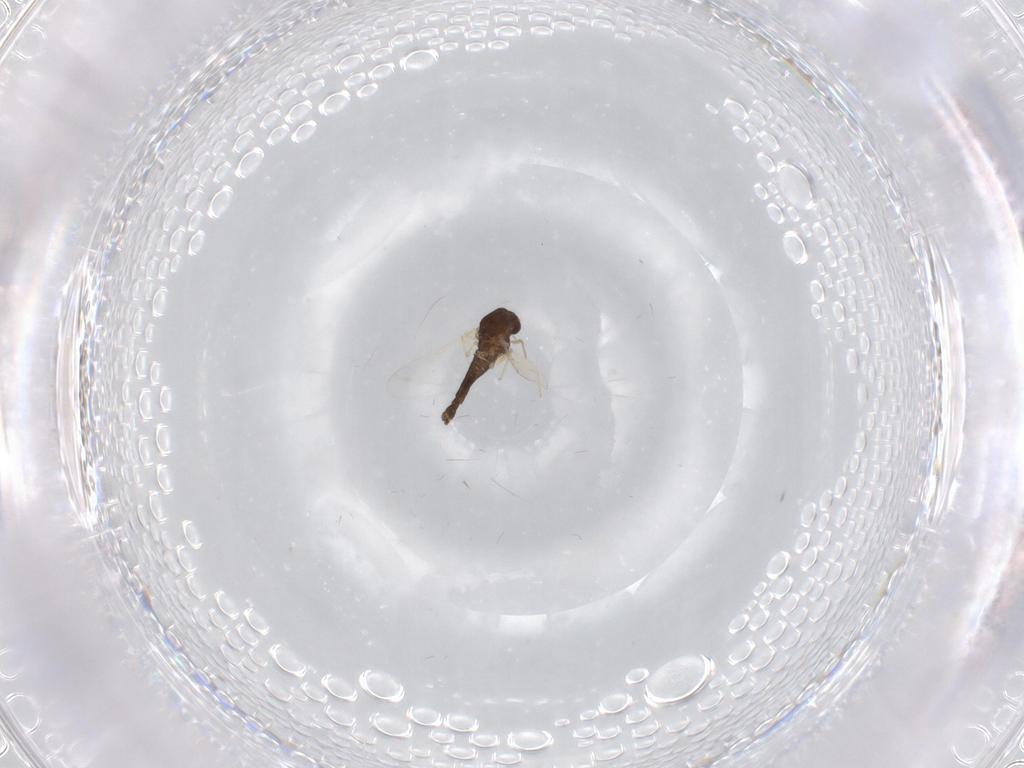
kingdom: Animalia
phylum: Arthropoda
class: Insecta
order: Diptera
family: Chironomidae
